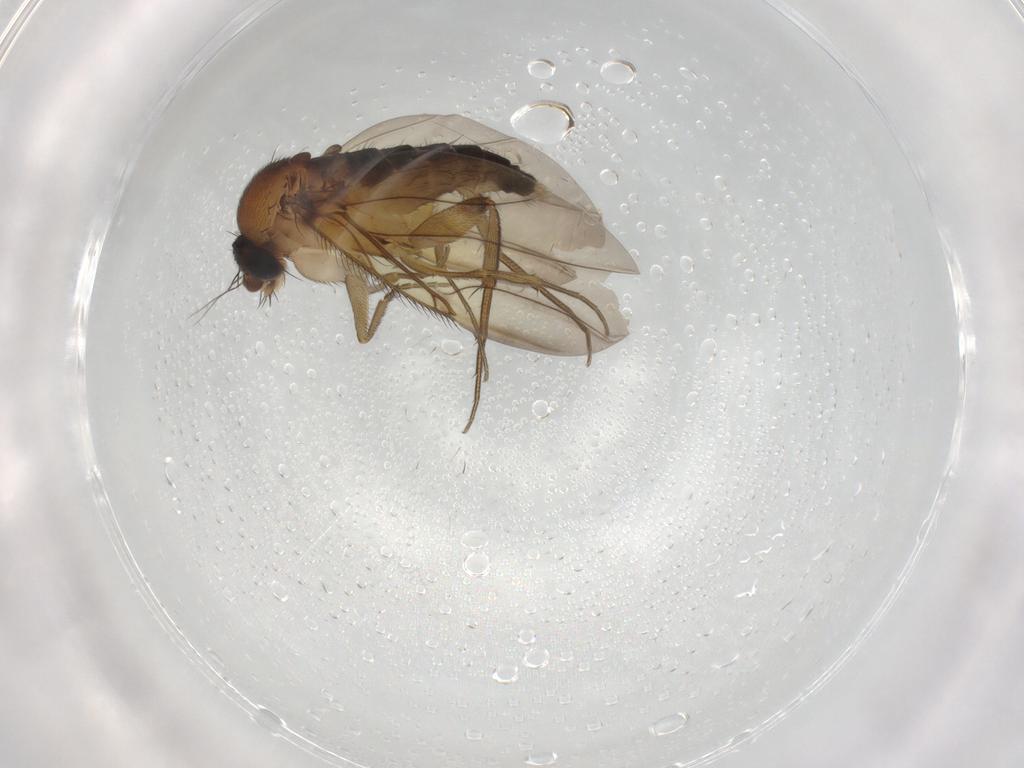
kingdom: Animalia
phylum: Arthropoda
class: Insecta
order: Diptera
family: Phoridae
